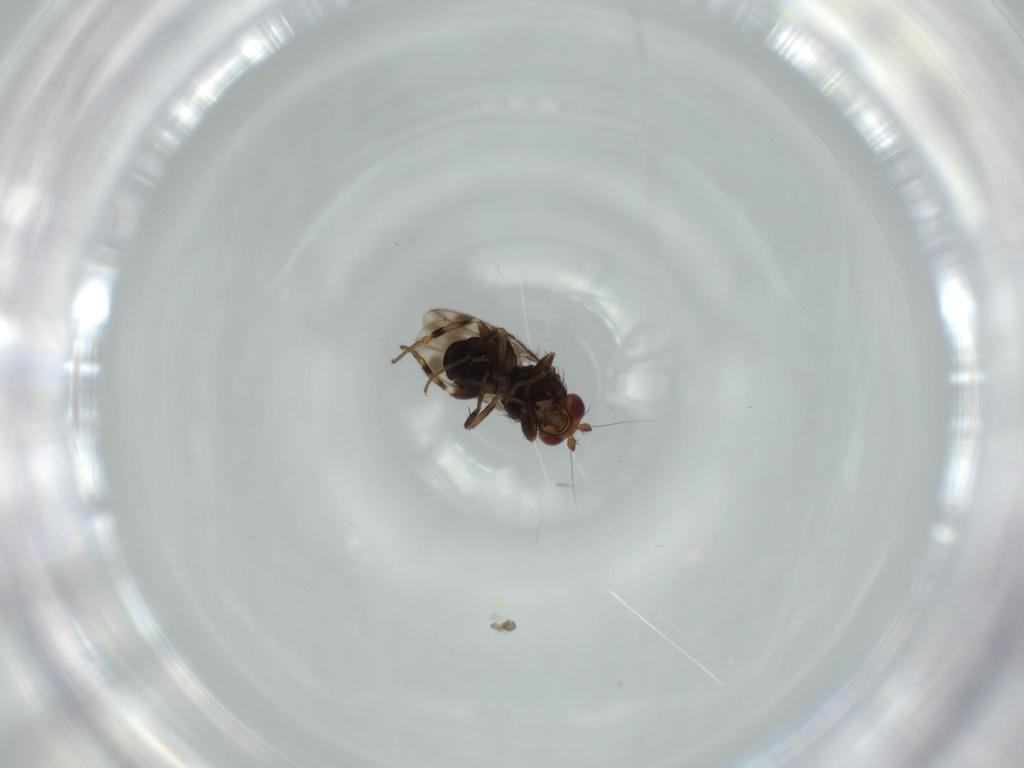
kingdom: Animalia
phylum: Arthropoda
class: Insecta
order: Diptera
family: Sphaeroceridae
